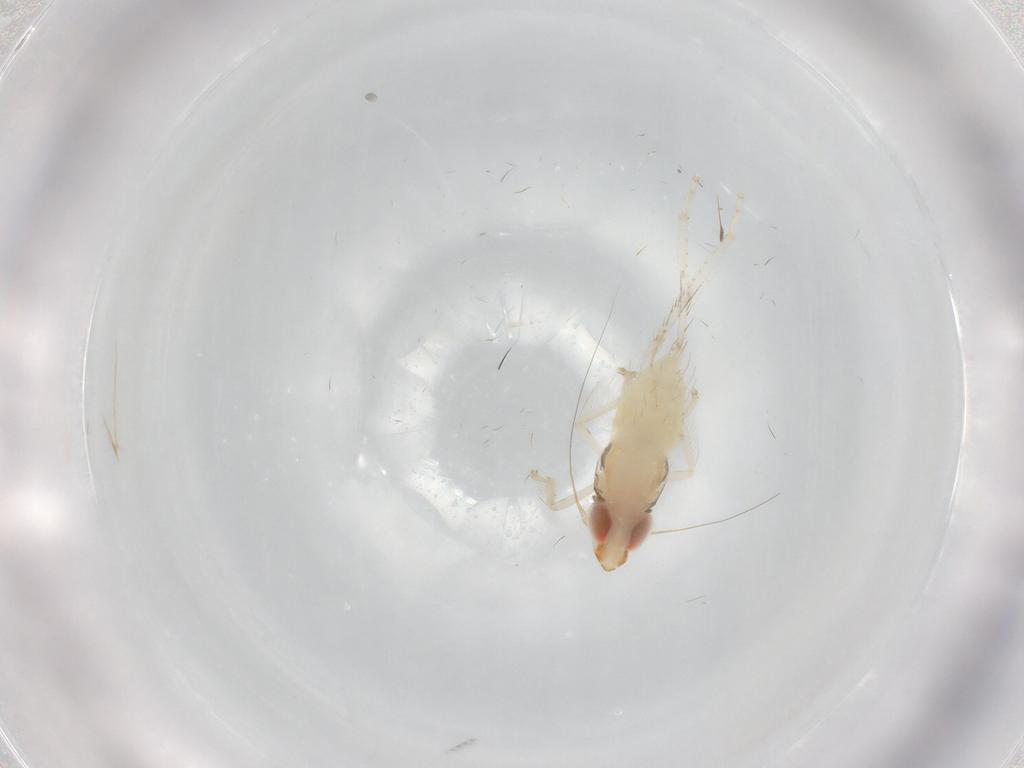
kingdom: Animalia
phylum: Arthropoda
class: Insecta
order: Hemiptera
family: Cicadellidae
